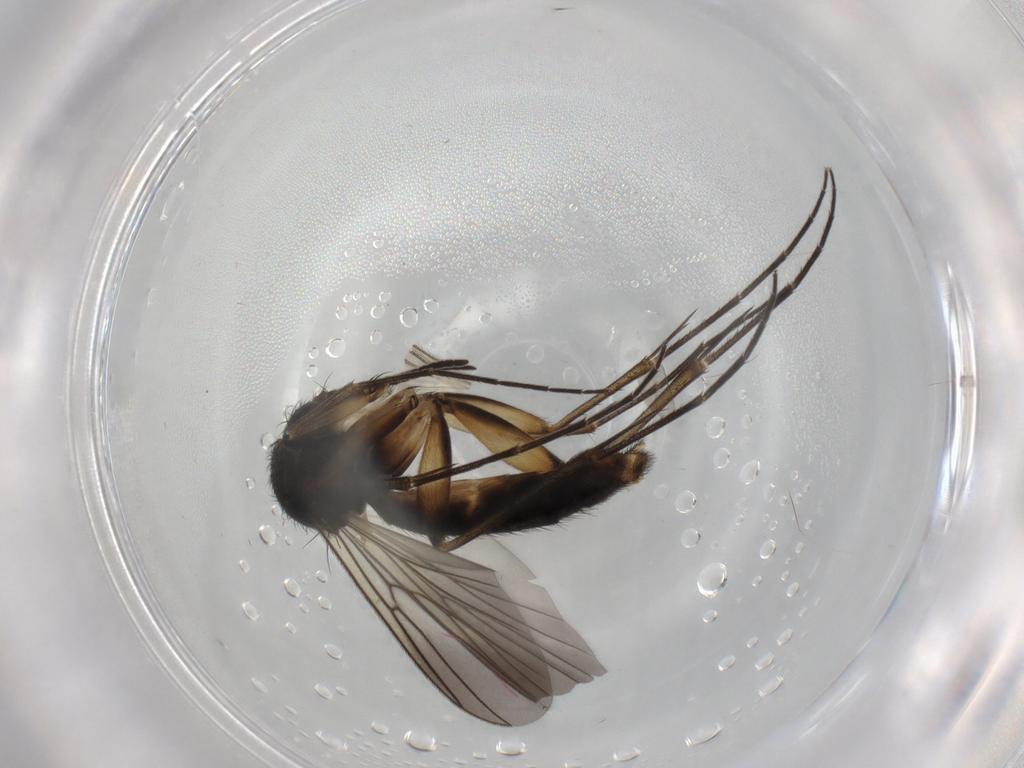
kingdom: Animalia
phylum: Arthropoda
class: Insecta
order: Diptera
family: Mycetophilidae
